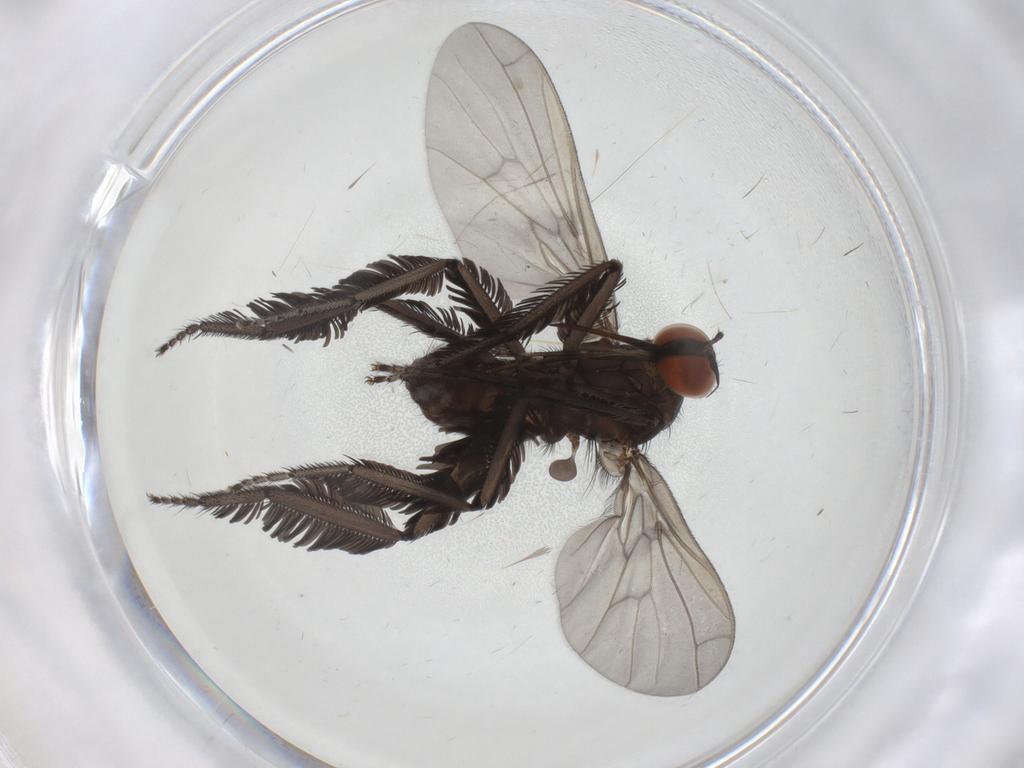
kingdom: Animalia
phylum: Arthropoda
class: Insecta
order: Diptera
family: Empididae
